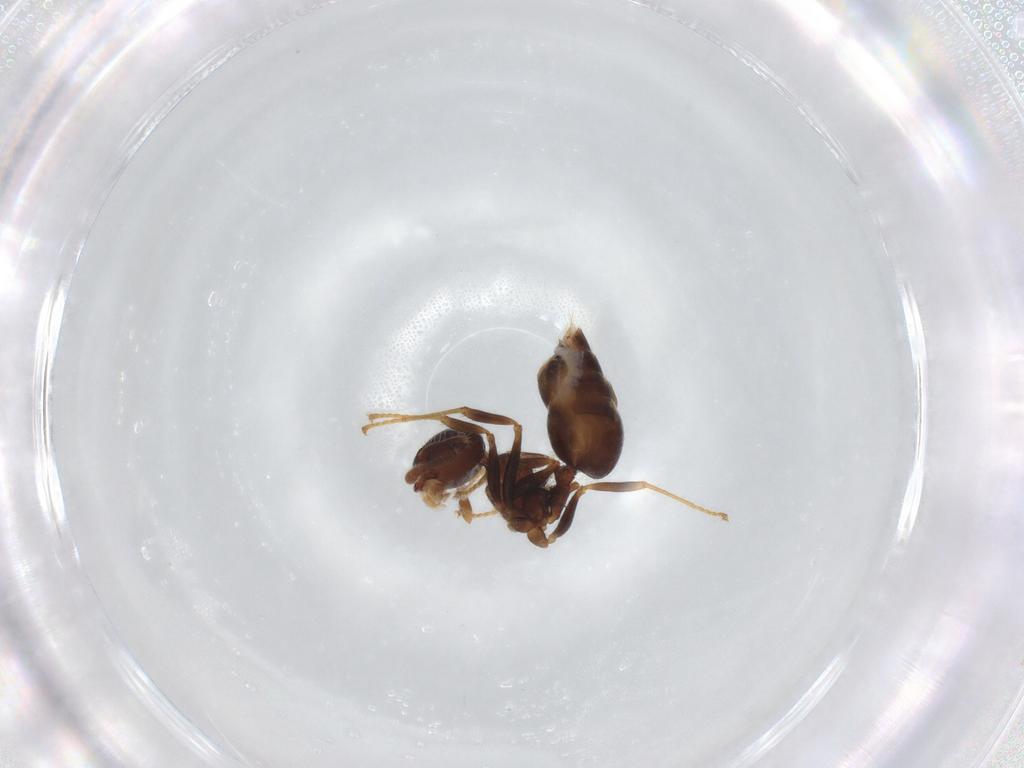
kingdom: Animalia
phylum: Arthropoda
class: Insecta
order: Hymenoptera
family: Formicidae
